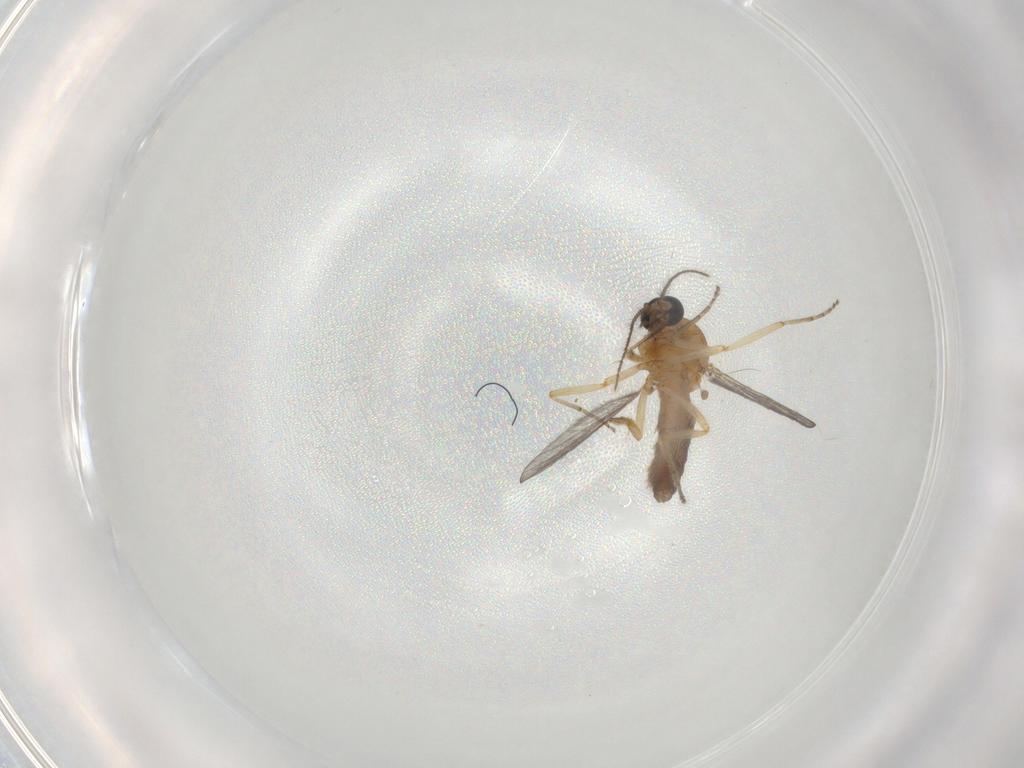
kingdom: Animalia
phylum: Arthropoda
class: Insecta
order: Diptera
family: Ceratopogonidae
